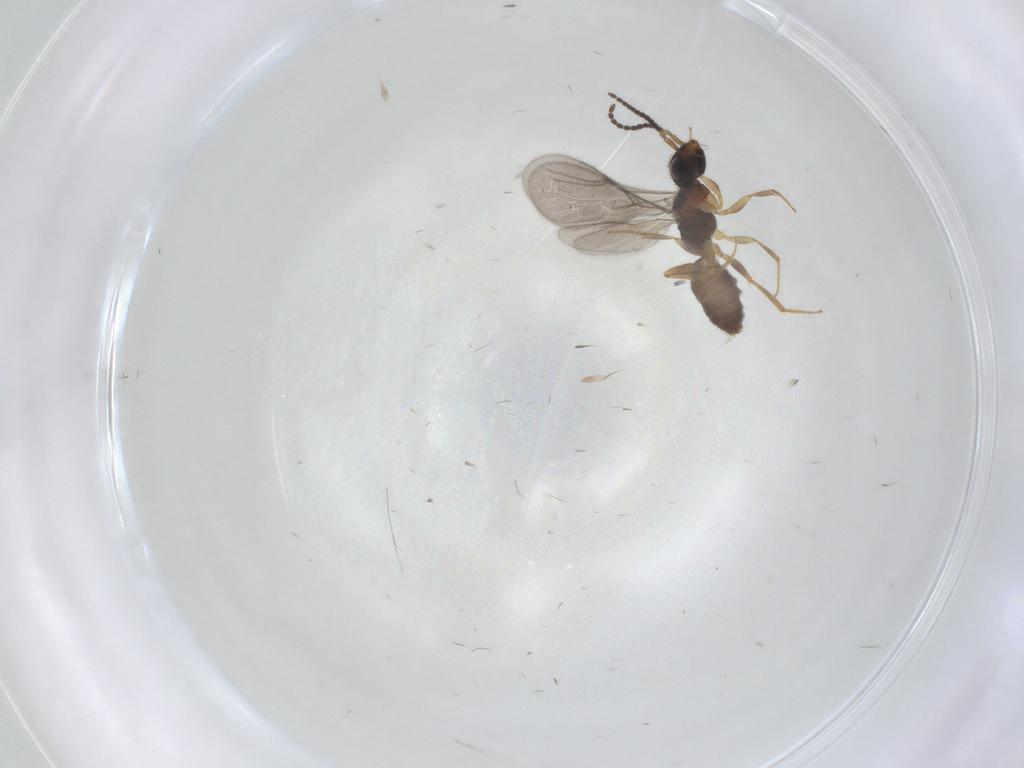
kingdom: Animalia
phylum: Arthropoda
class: Insecta
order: Hymenoptera
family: Bethylidae
